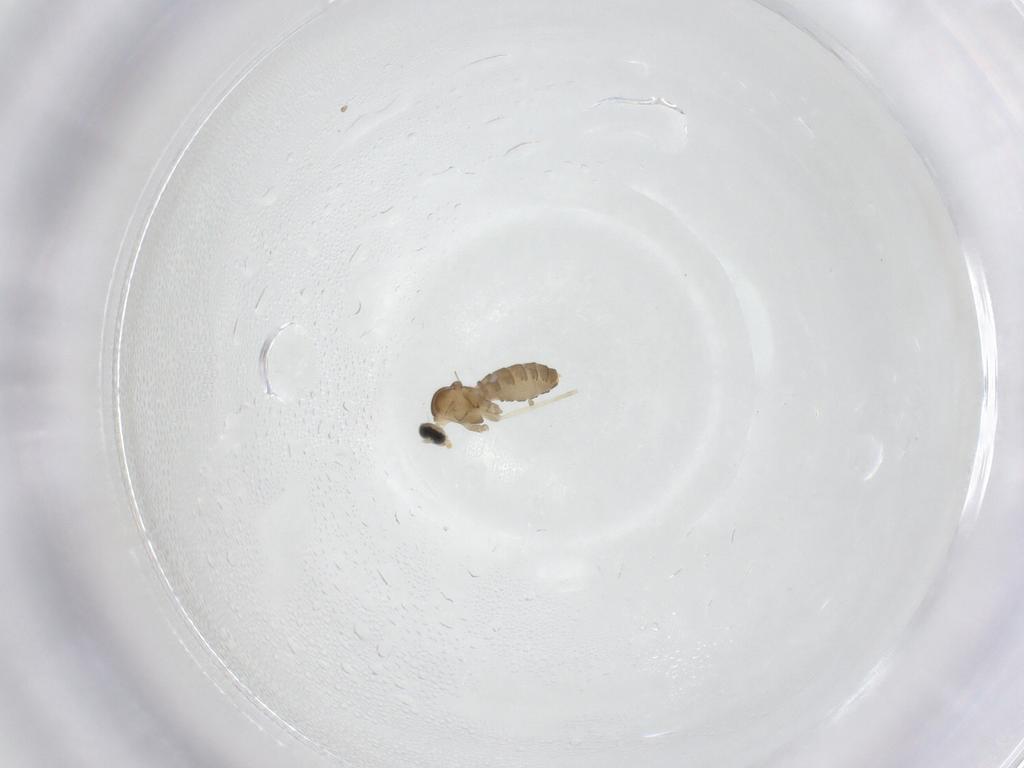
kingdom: Animalia
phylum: Arthropoda
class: Insecta
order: Diptera
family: Cecidomyiidae
